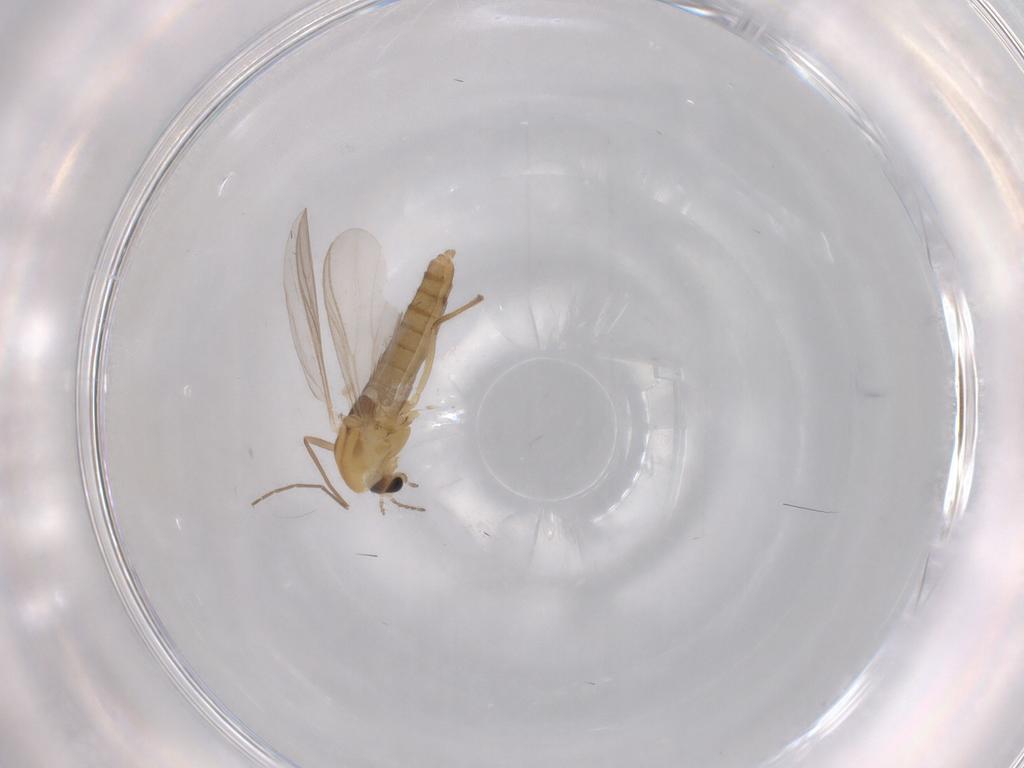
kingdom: Animalia
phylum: Arthropoda
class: Insecta
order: Diptera
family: Chironomidae
